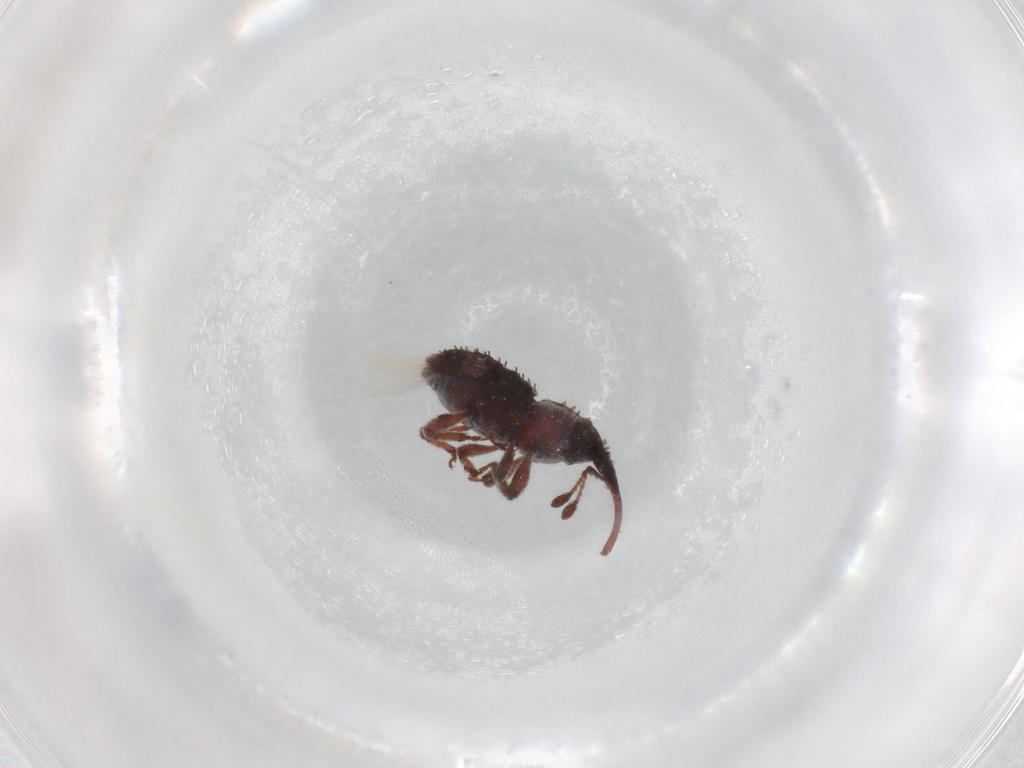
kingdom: Animalia
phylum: Arthropoda
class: Insecta
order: Coleoptera
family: Curculionidae
